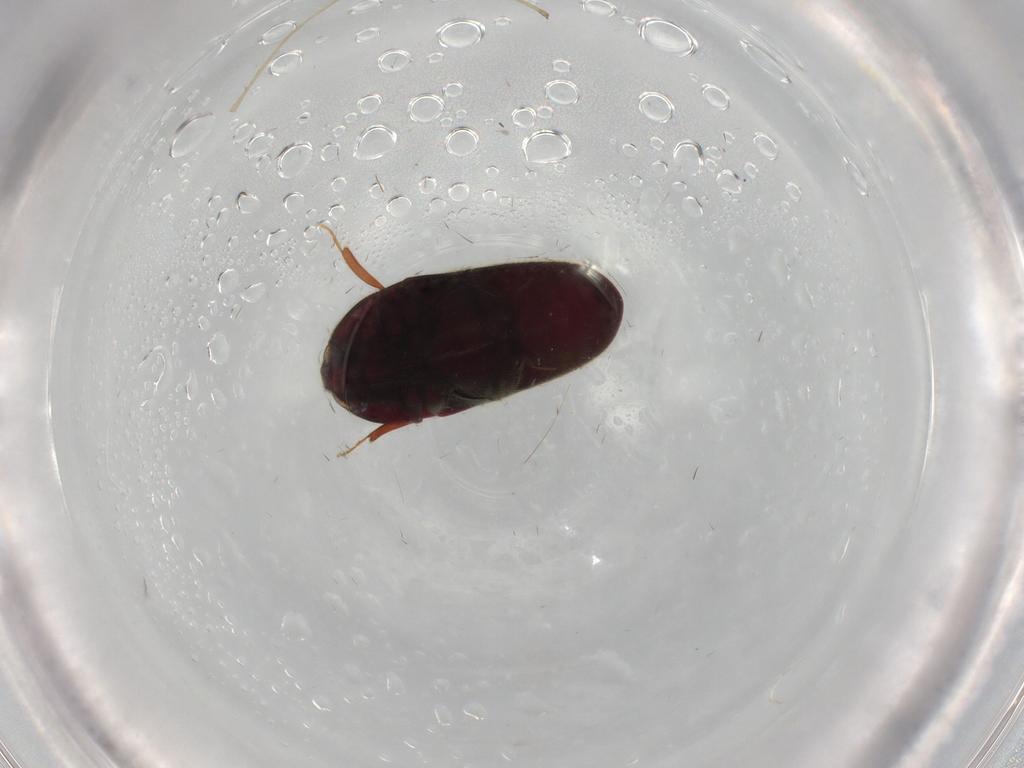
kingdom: Animalia
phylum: Arthropoda
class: Insecta
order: Coleoptera
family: Throscidae
